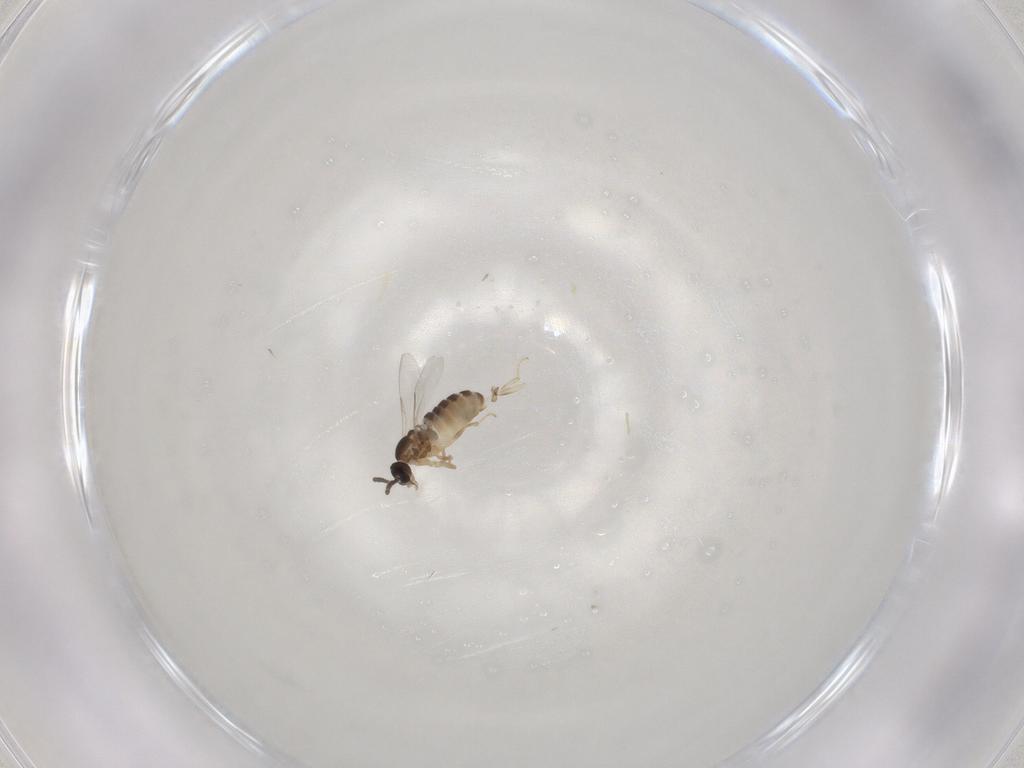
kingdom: Animalia
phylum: Arthropoda
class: Insecta
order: Diptera
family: Scatopsidae
